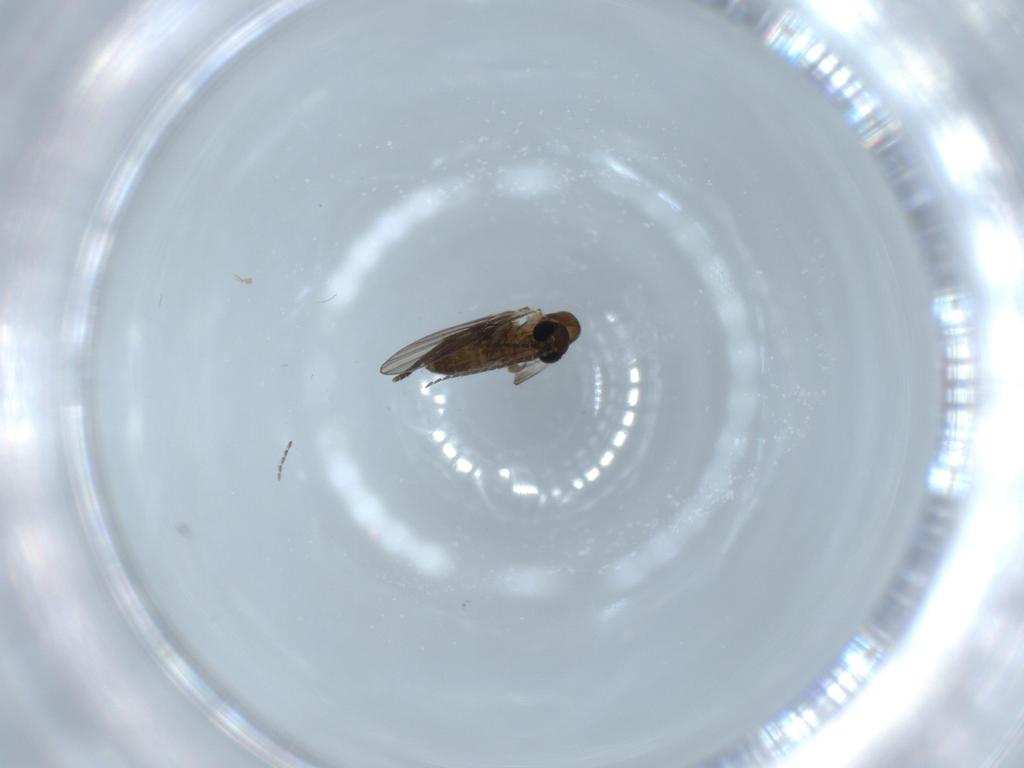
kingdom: Animalia
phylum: Arthropoda
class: Insecta
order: Diptera
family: Psychodidae
